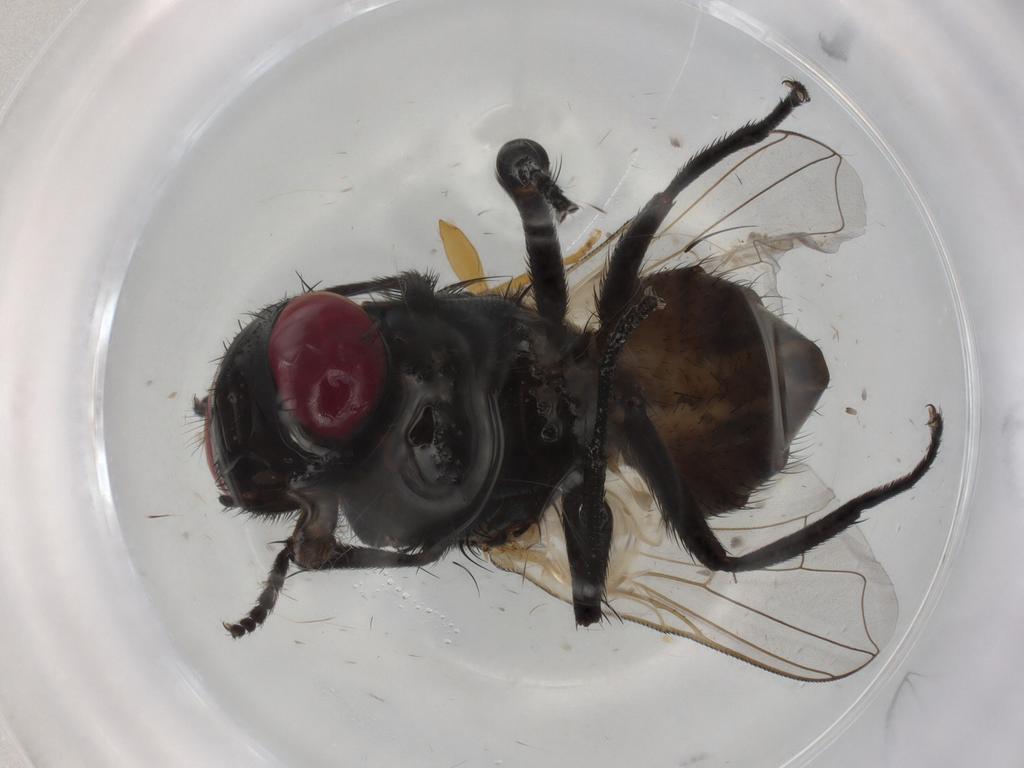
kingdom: Animalia
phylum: Arthropoda
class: Insecta
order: Diptera
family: Muscidae
